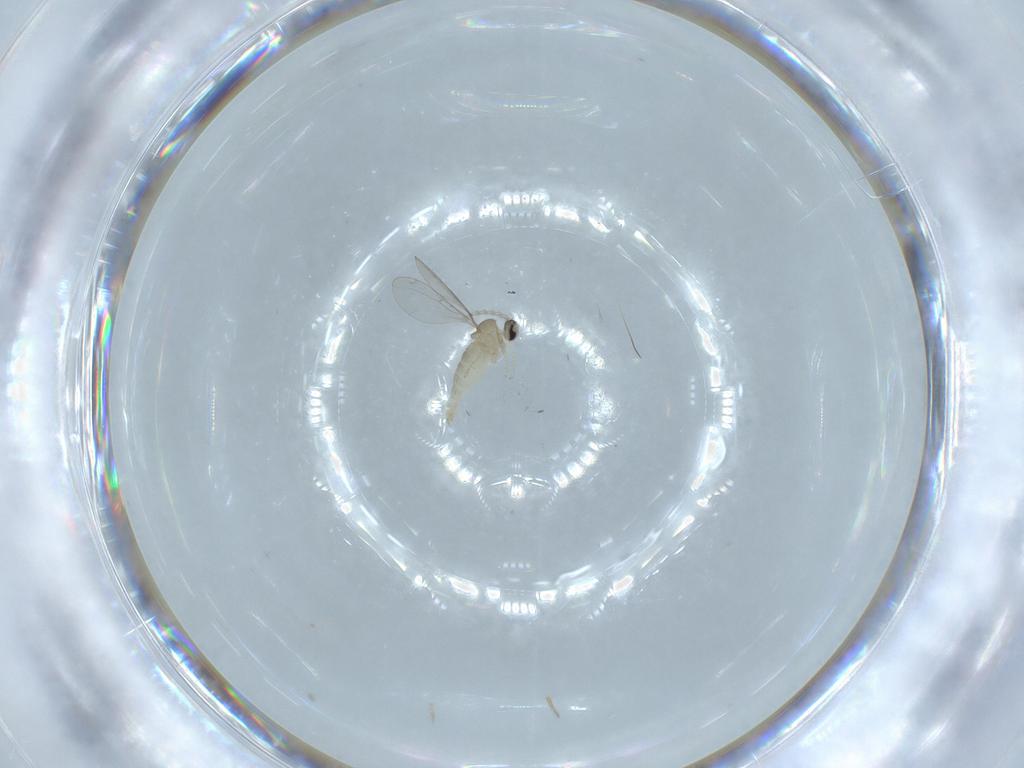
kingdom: Animalia
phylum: Arthropoda
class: Insecta
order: Diptera
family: Cecidomyiidae
